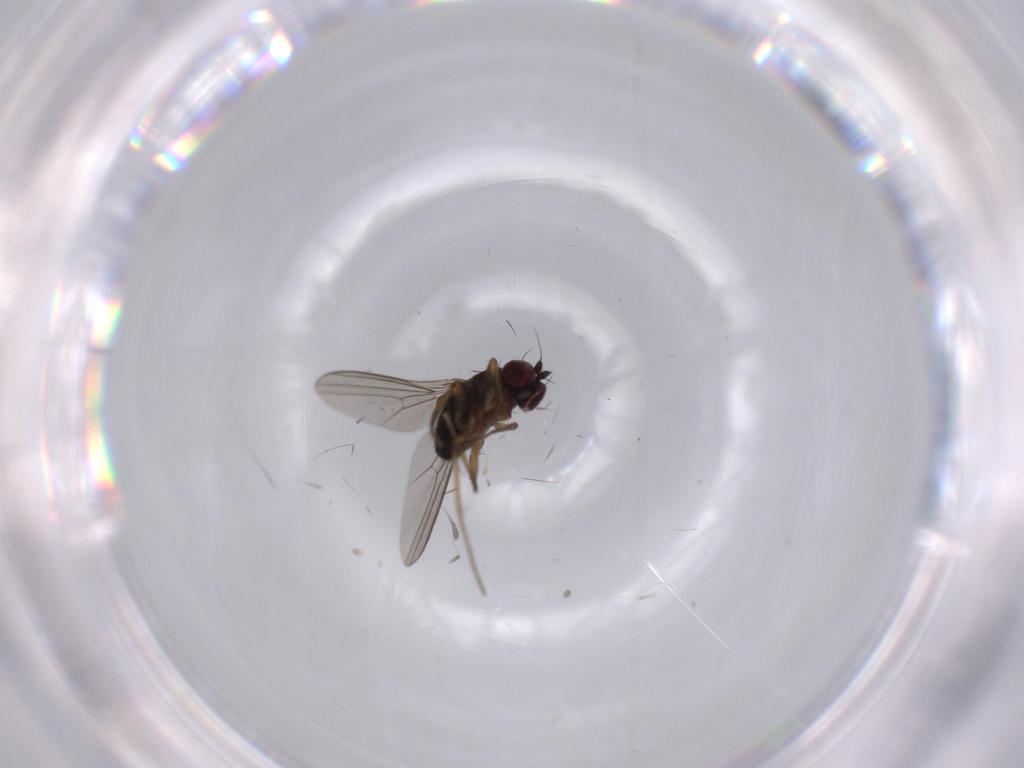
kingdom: Animalia
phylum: Arthropoda
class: Insecta
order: Diptera
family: Dolichopodidae
